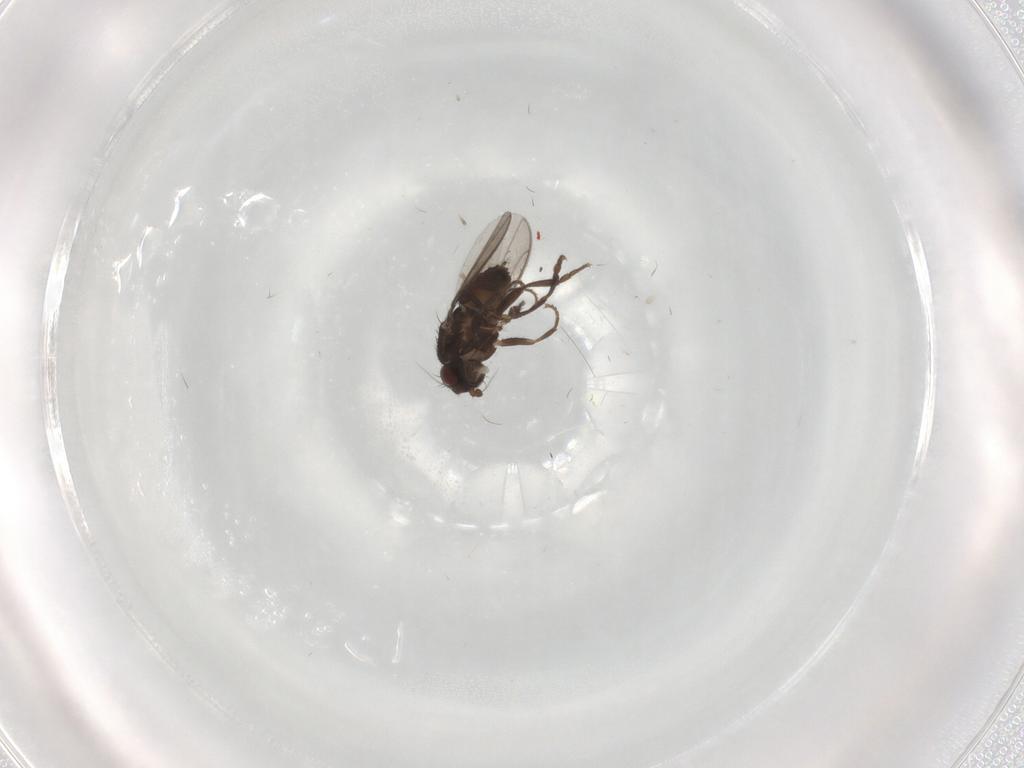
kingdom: Animalia
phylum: Arthropoda
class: Insecta
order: Diptera
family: Sphaeroceridae
